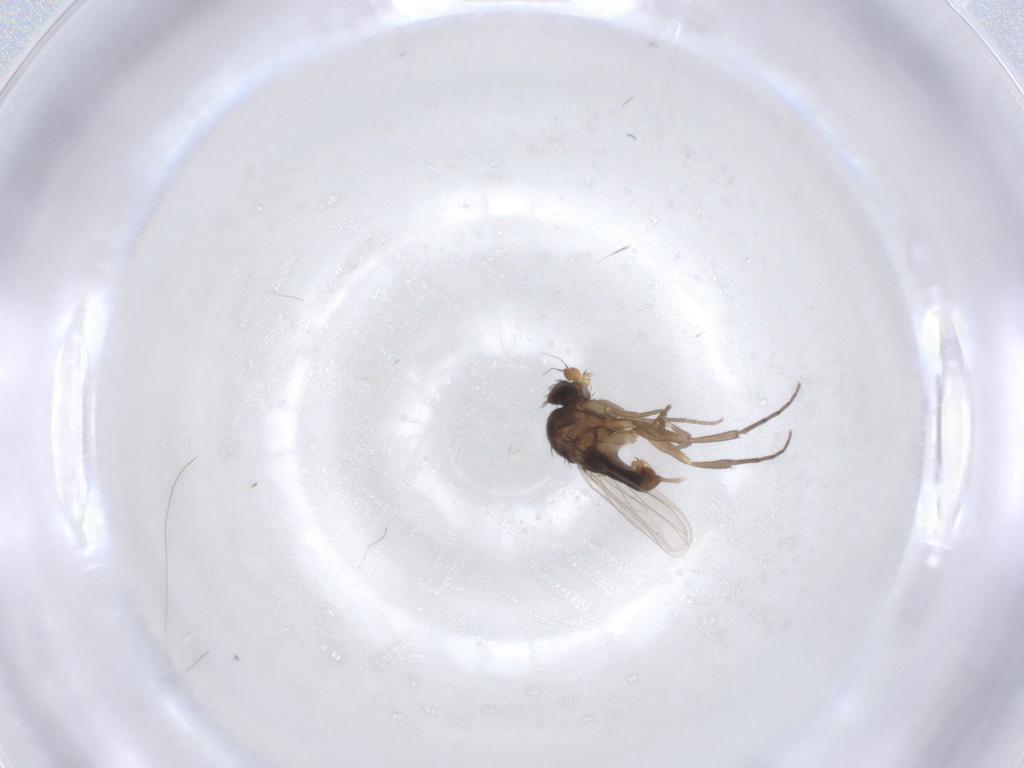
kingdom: Animalia
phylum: Arthropoda
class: Insecta
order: Diptera
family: Phoridae
